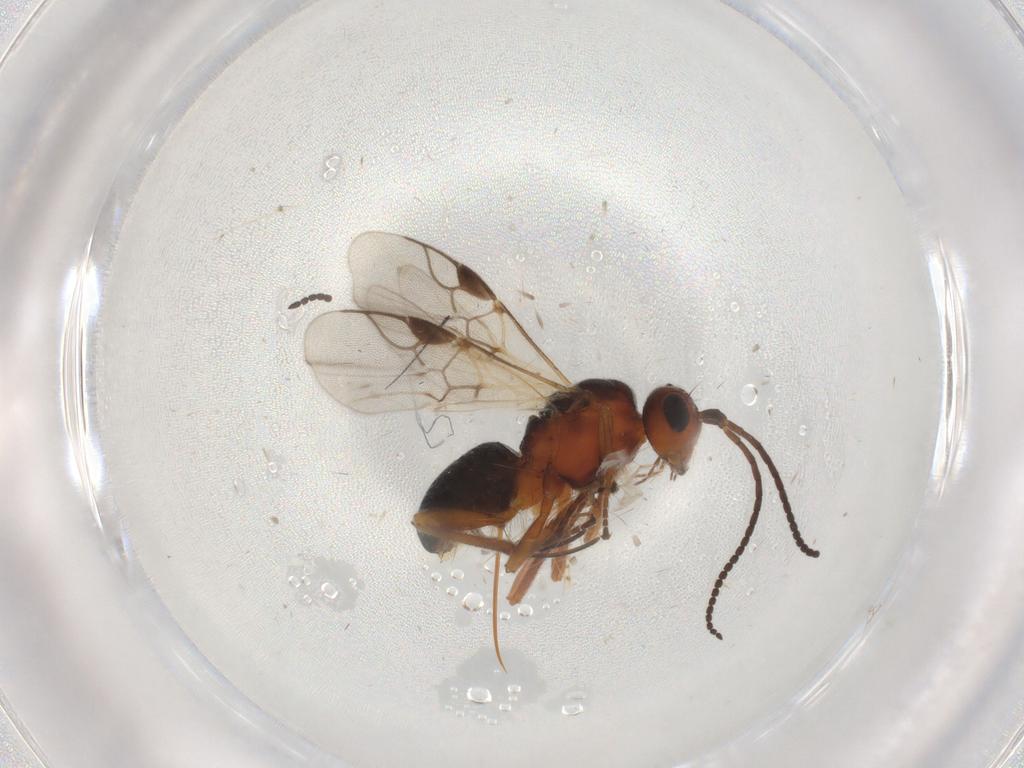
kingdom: Animalia
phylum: Arthropoda
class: Insecta
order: Hymenoptera
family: Braconidae
